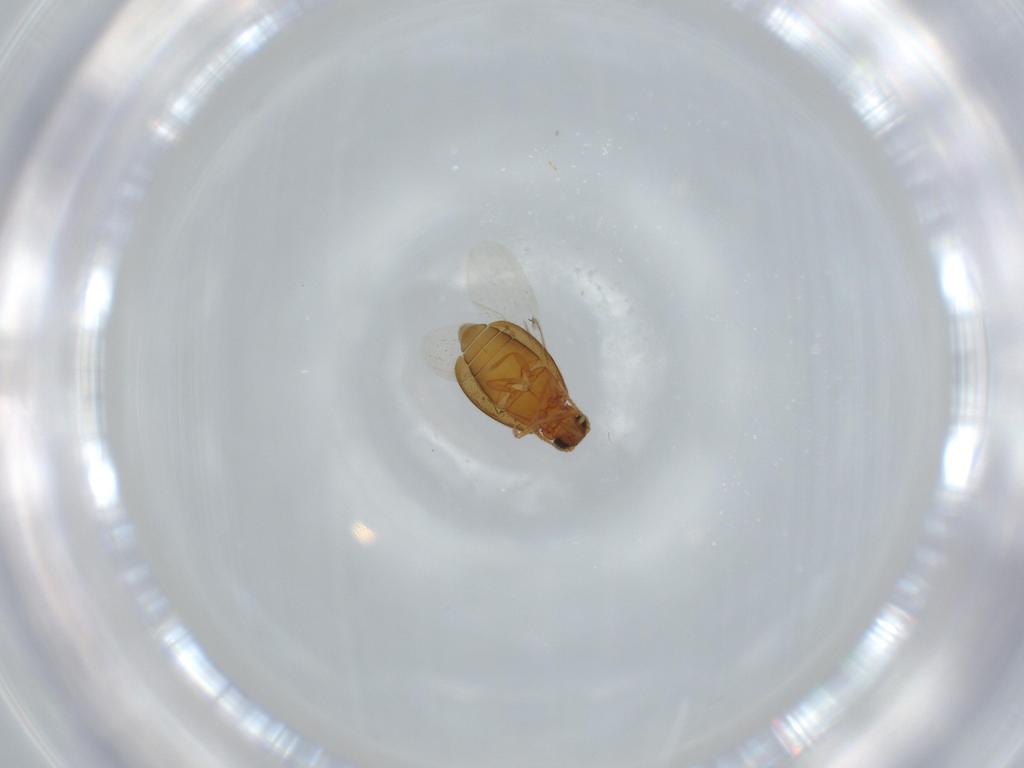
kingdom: Animalia
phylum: Arthropoda
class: Insecta
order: Coleoptera
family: Aderidae
